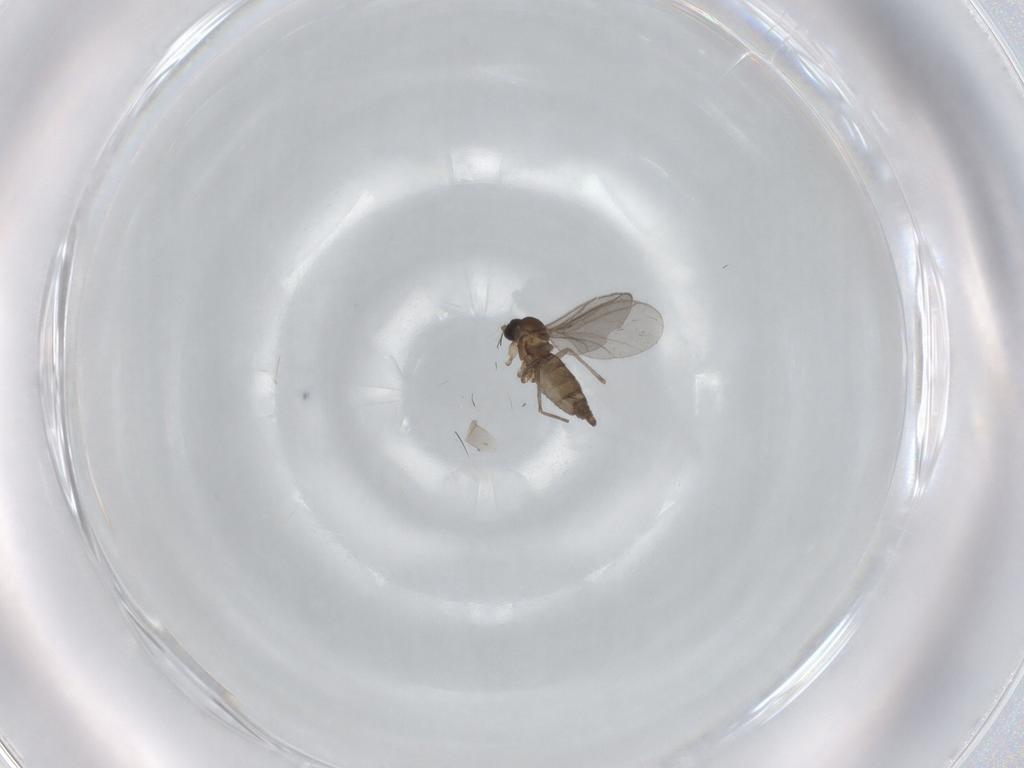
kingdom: Animalia
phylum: Arthropoda
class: Insecta
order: Diptera
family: Sciaridae
